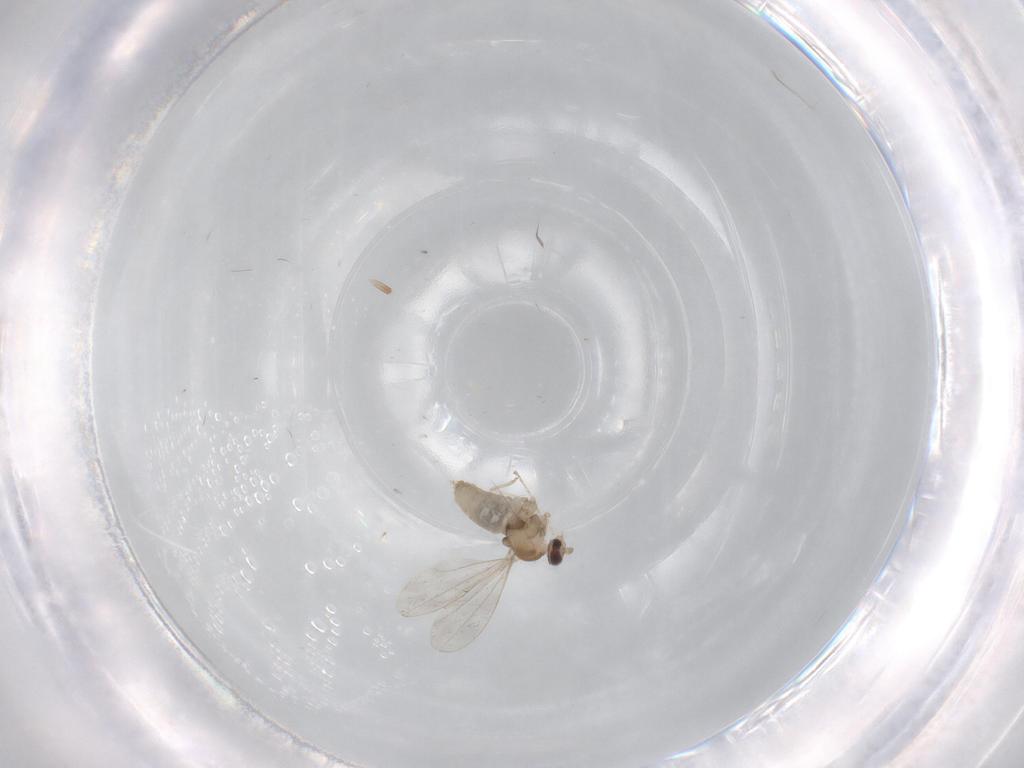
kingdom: Animalia
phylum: Arthropoda
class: Insecta
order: Diptera
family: Cecidomyiidae
